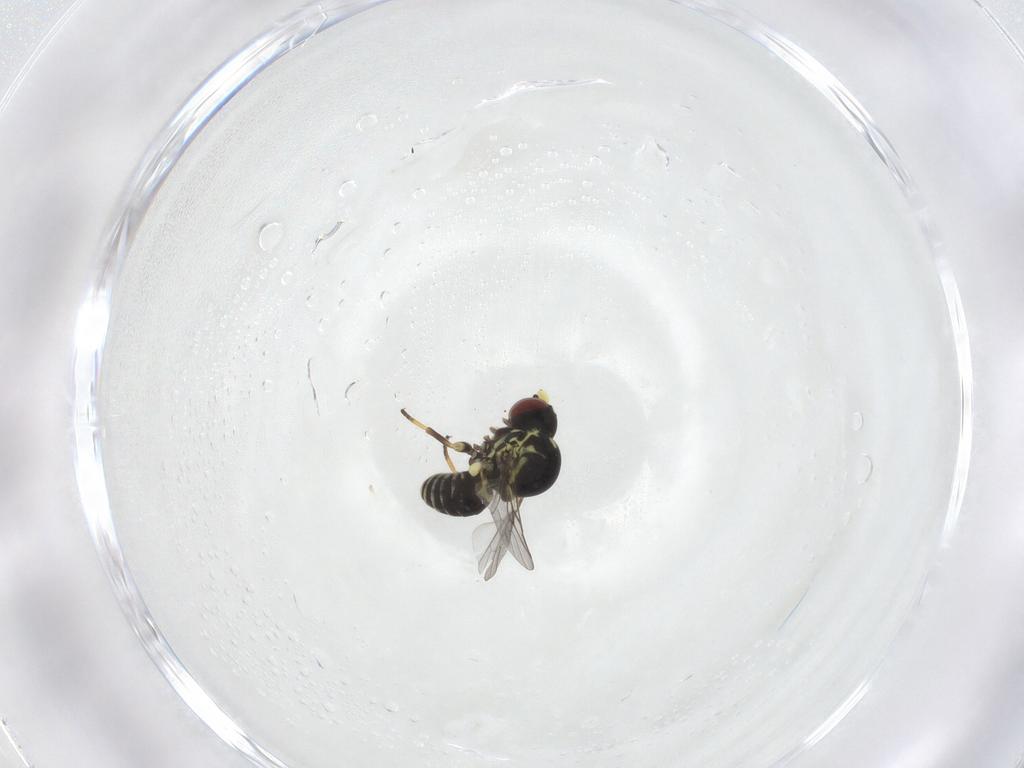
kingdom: Animalia
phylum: Arthropoda
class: Insecta
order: Diptera
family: Mythicomyiidae
